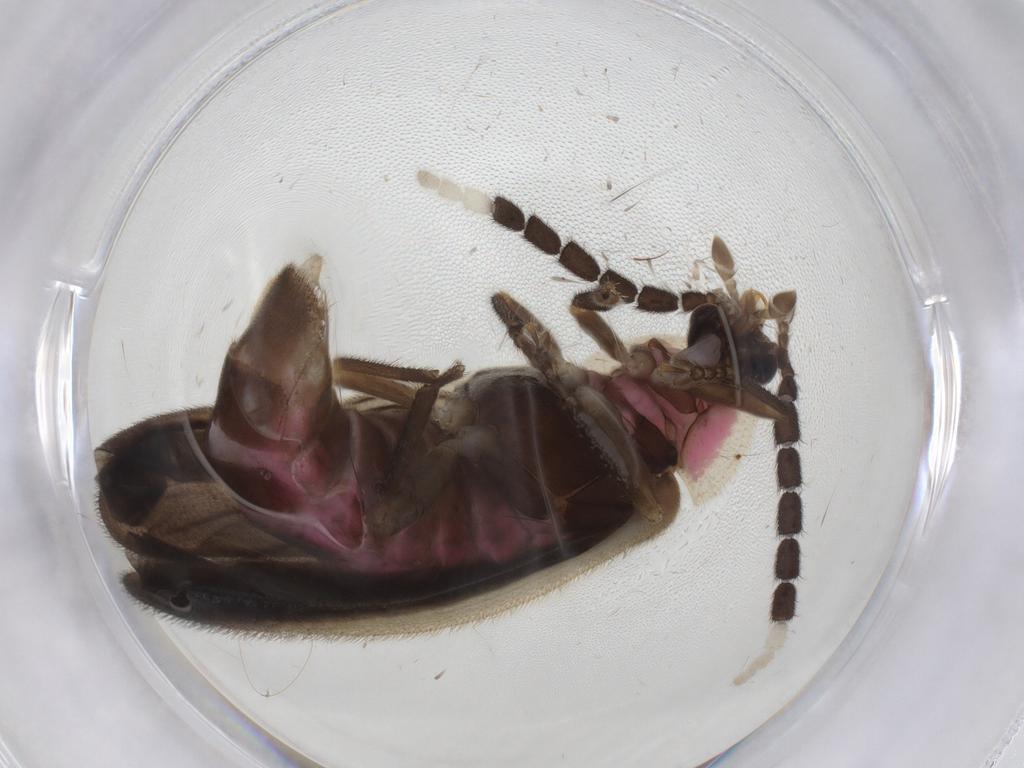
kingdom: Animalia
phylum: Arthropoda
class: Insecta
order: Coleoptera
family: Lampyridae
